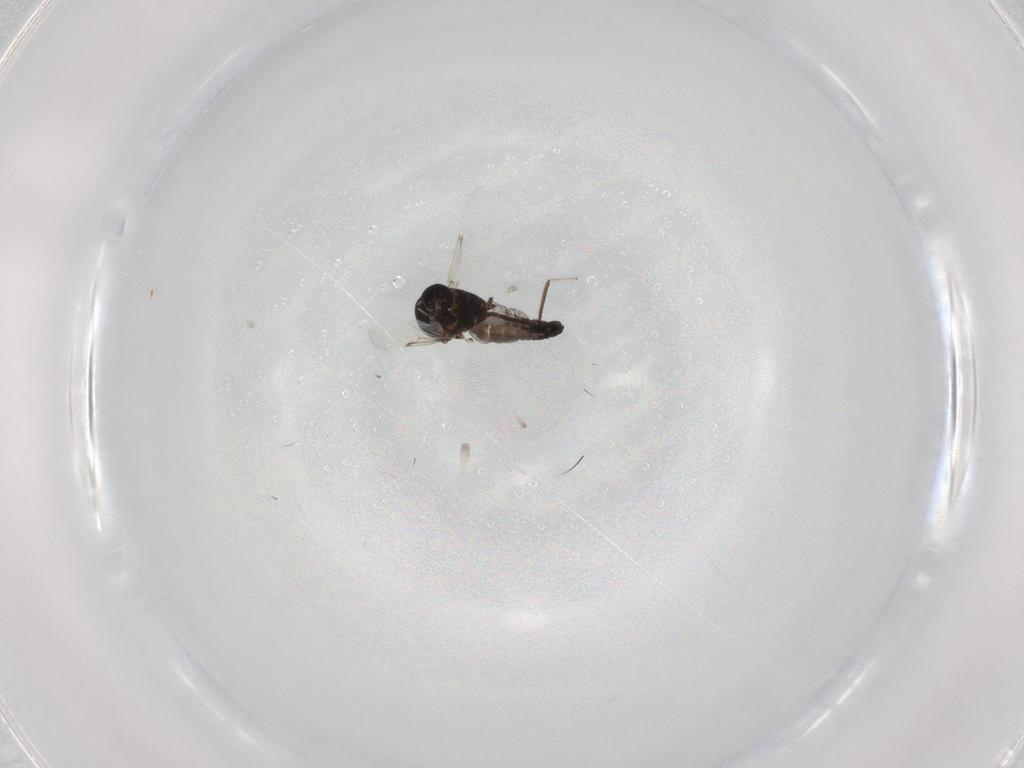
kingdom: Animalia
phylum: Arthropoda
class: Insecta
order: Diptera
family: Ceratopogonidae
